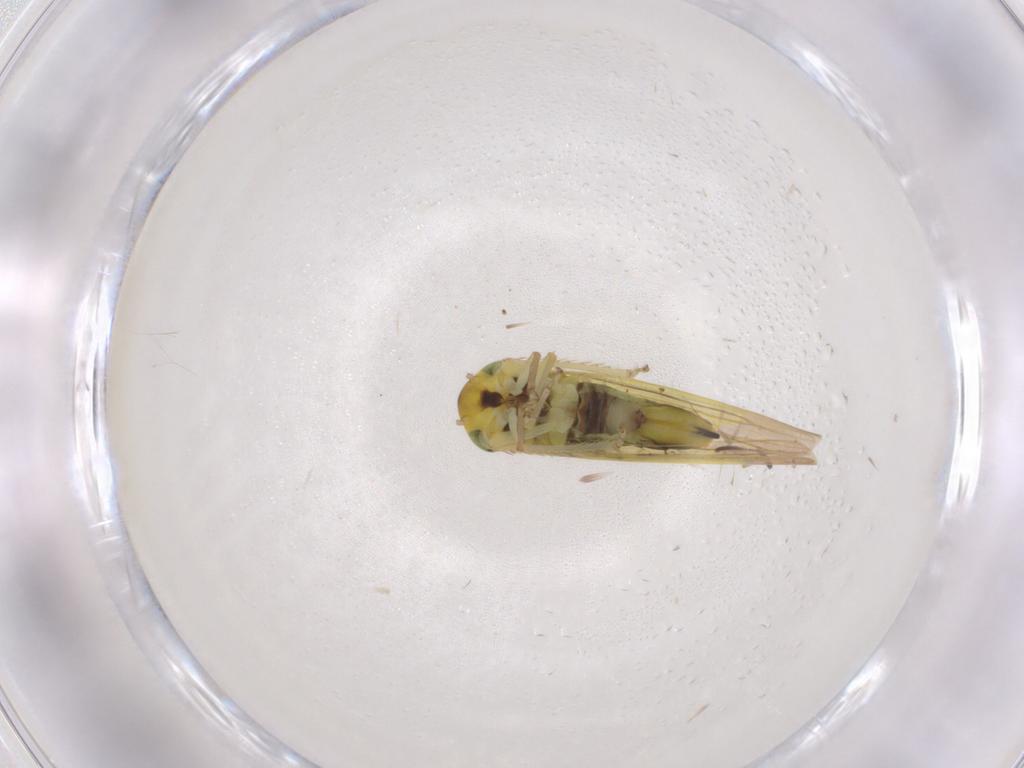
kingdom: Animalia
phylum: Arthropoda
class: Insecta
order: Hemiptera
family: Cicadellidae
